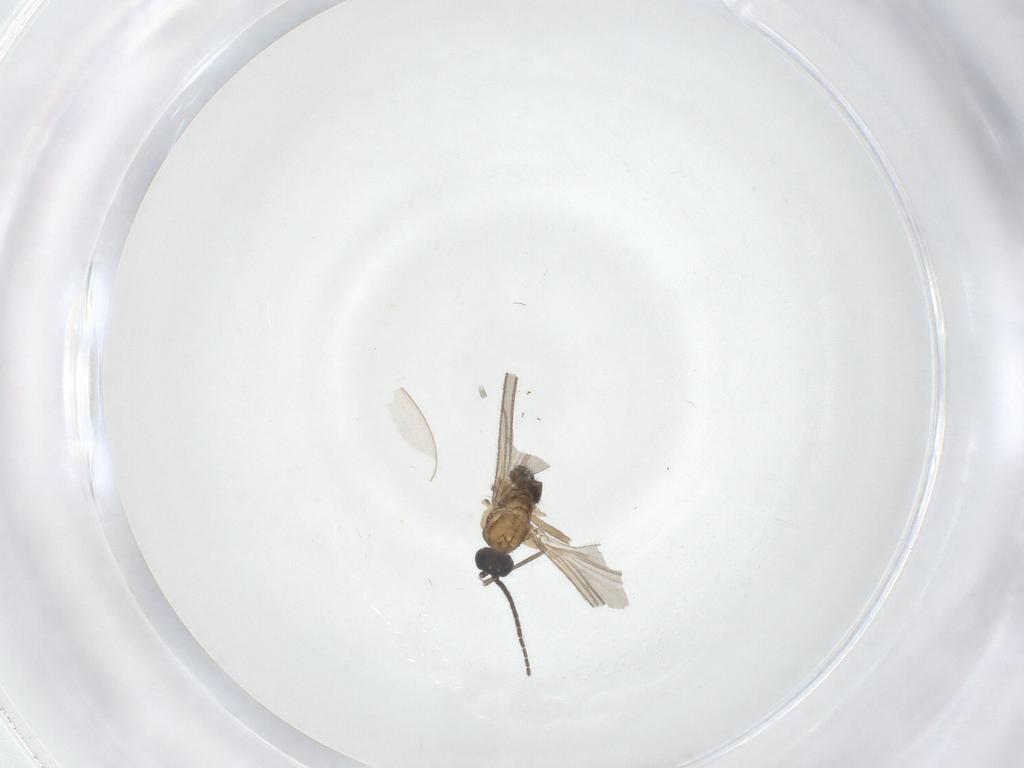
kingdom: Animalia
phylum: Arthropoda
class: Insecta
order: Diptera
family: Sciaridae
